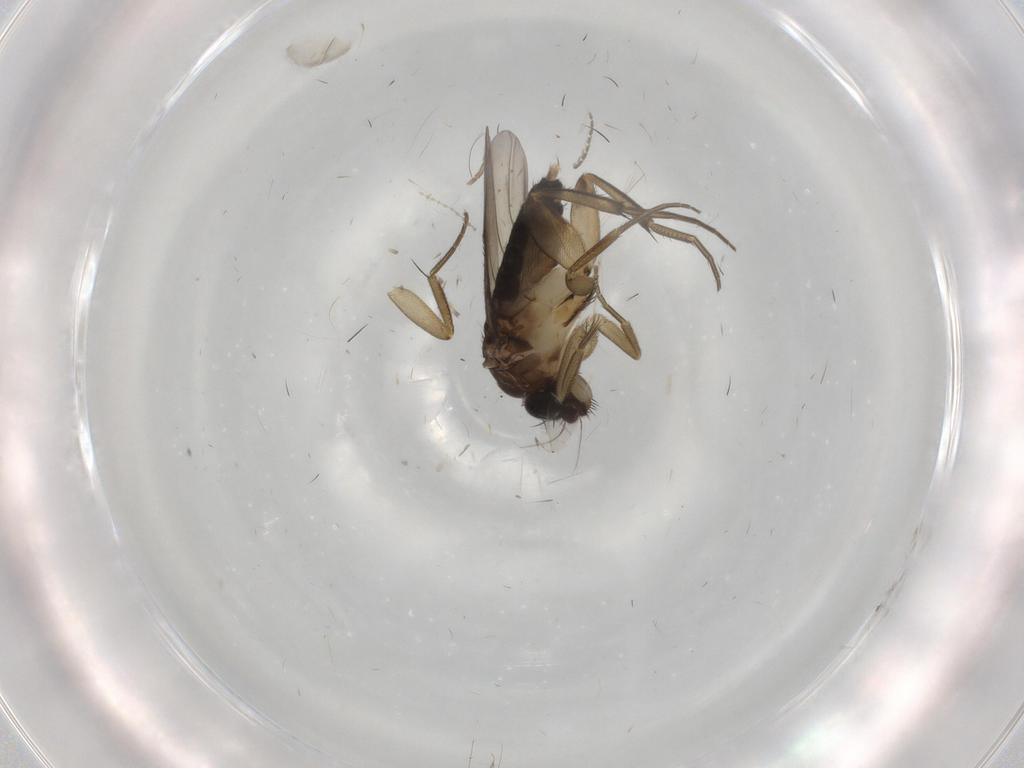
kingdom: Animalia
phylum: Arthropoda
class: Insecta
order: Diptera
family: Phoridae
